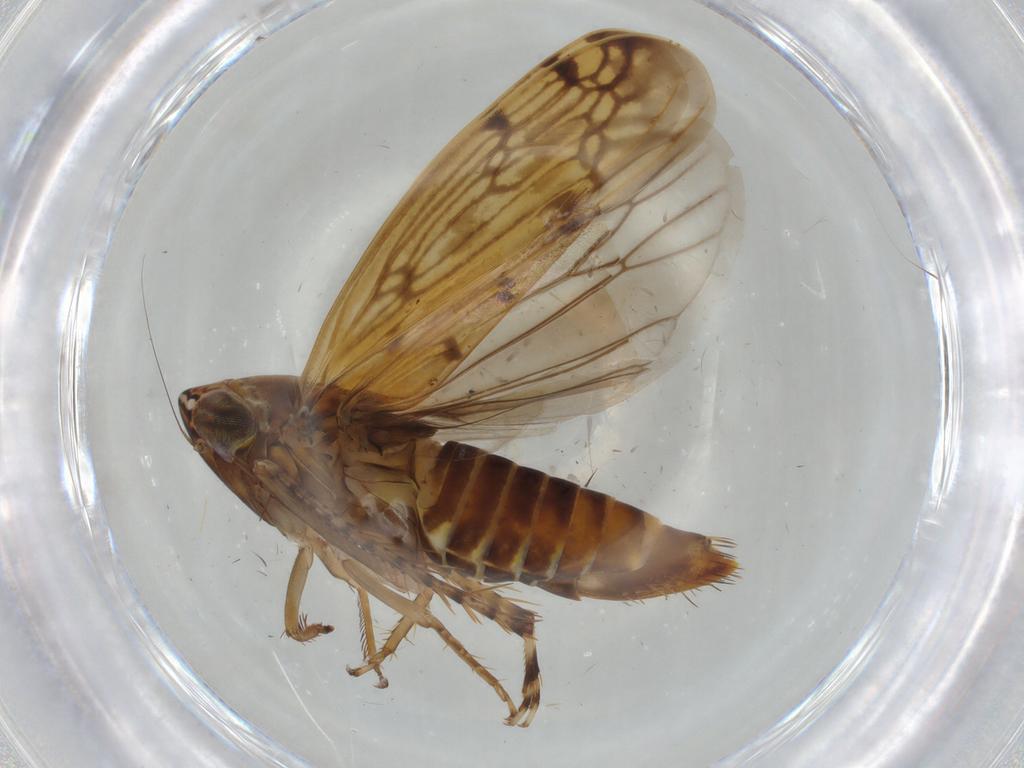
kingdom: Animalia
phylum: Arthropoda
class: Insecta
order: Hemiptera
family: Cicadellidae
